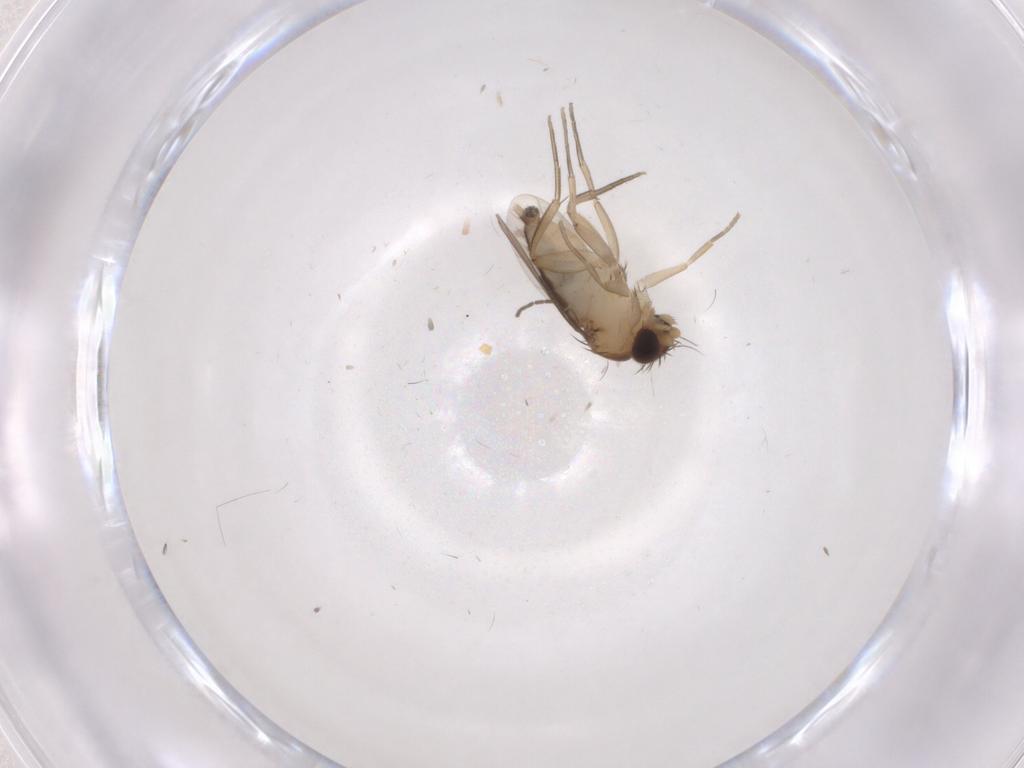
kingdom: Animalia
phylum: Arthropoda
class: Insecta
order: Diptera
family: Phoridae
